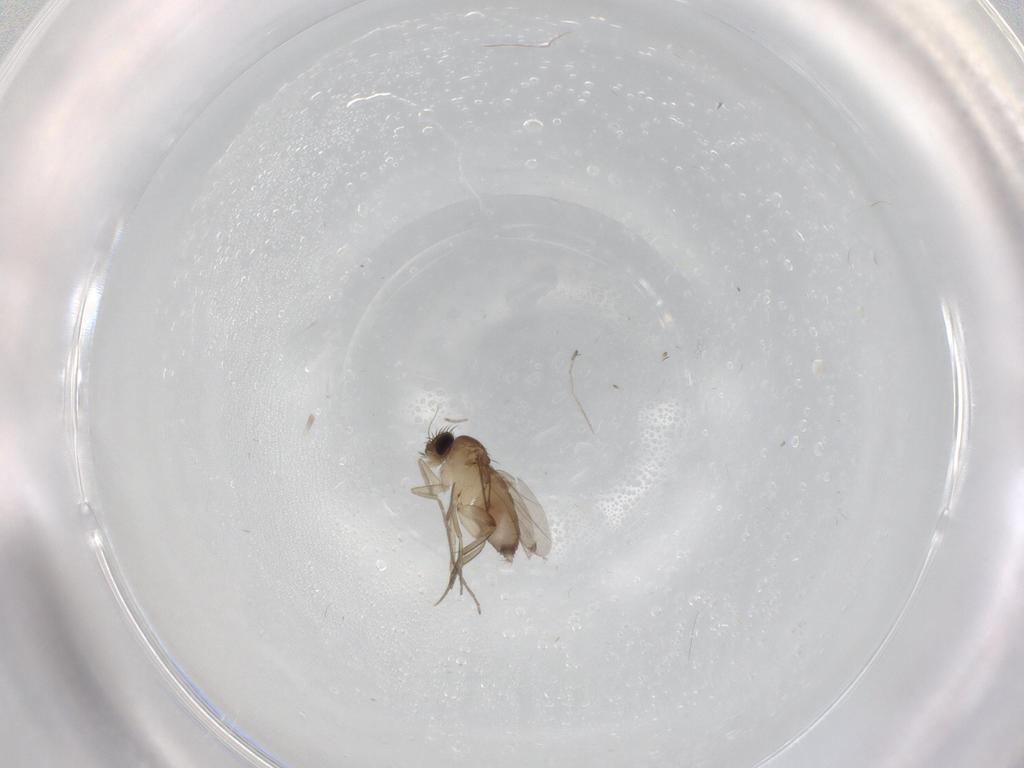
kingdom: Animalia
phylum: Arthropoda
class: Insecta
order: Diptera
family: Phoridae
